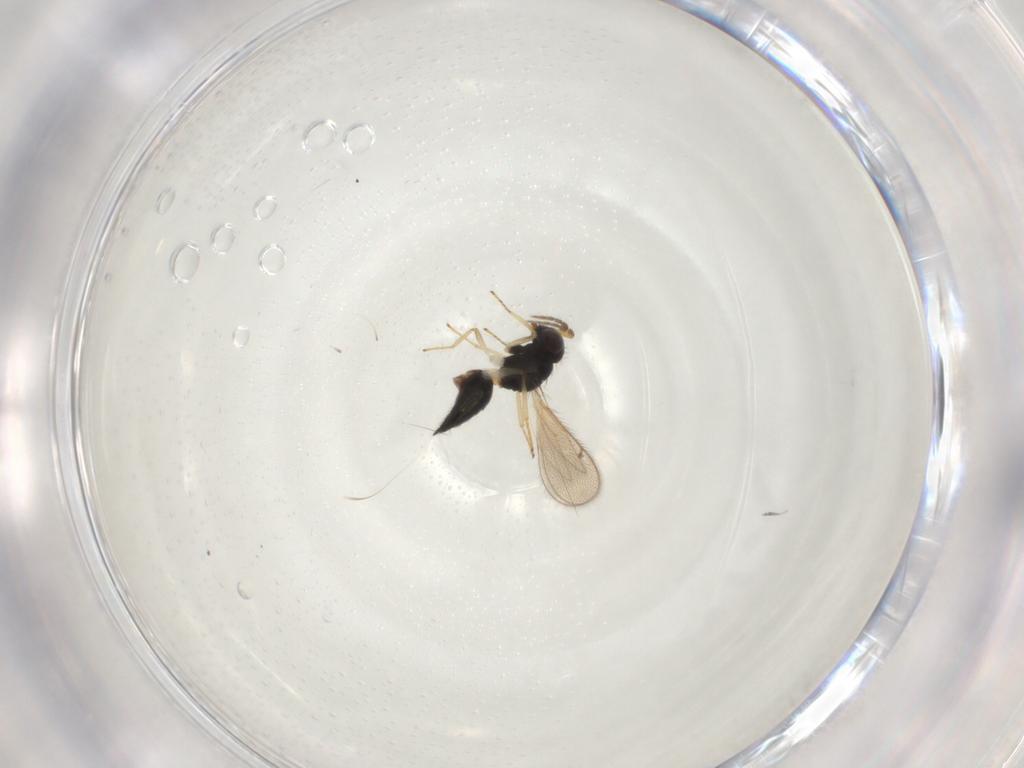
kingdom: Animalia
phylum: Arthropoda
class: Insecta
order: Diptera
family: Sciaridae
